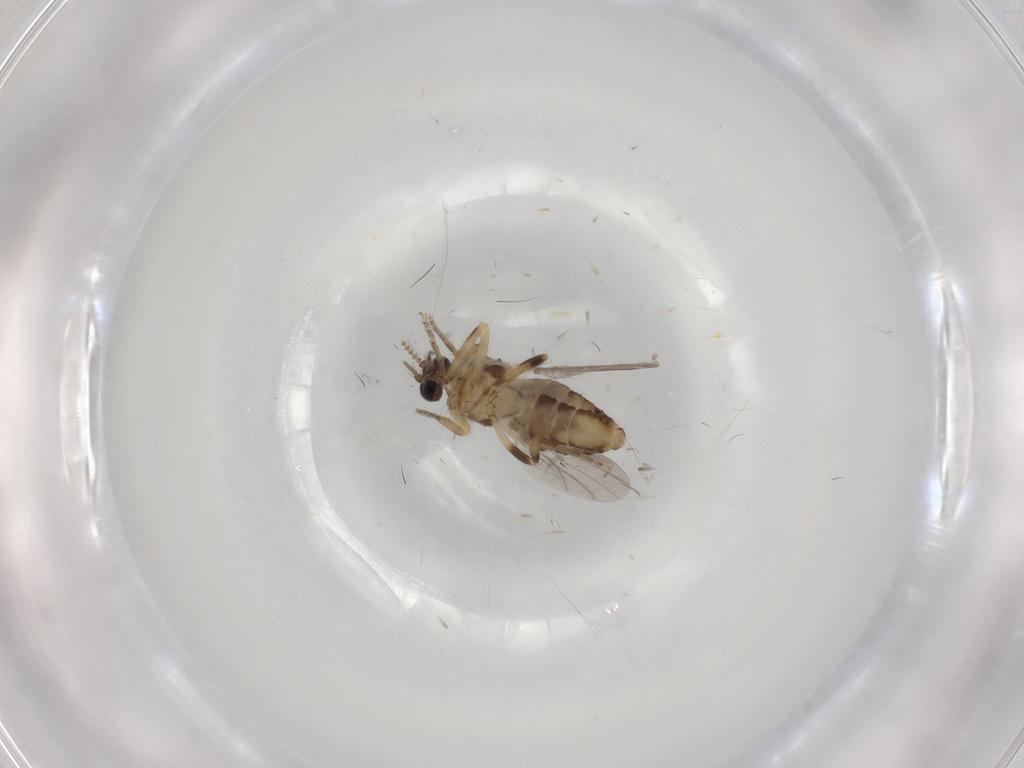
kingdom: Animalia
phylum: Arthropoda
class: Insecta
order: Diptera
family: Ceratopogonidae
